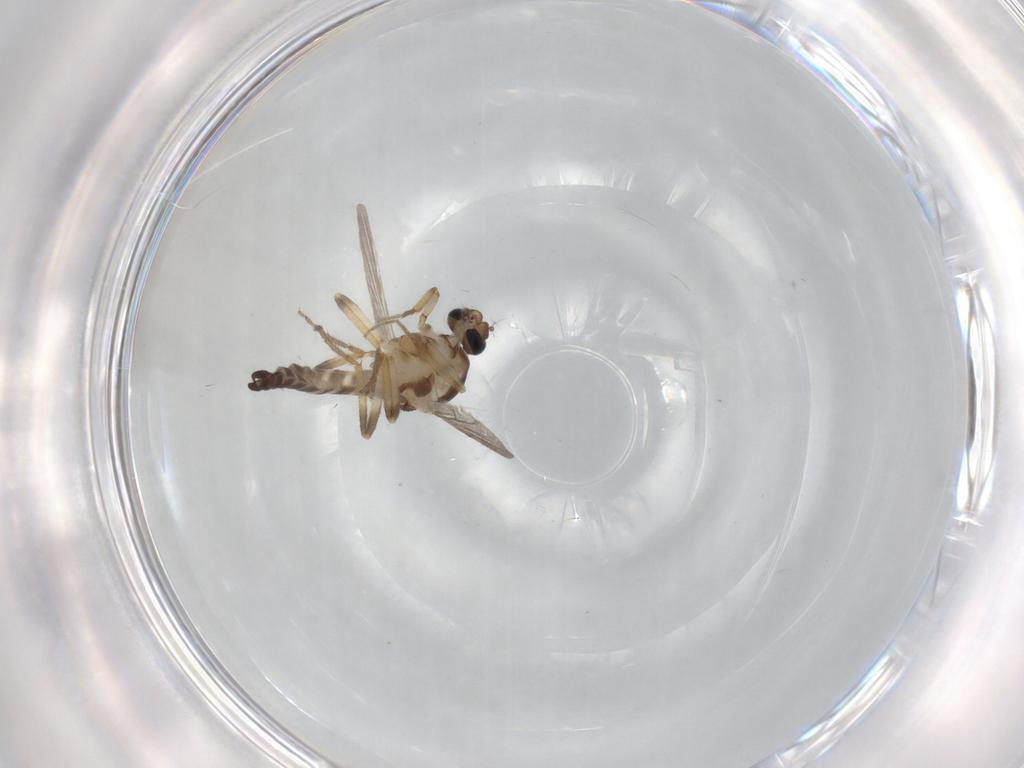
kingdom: Animalia
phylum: Arthropoda
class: Insecta
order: Diptera
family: Ceratopogonidae
